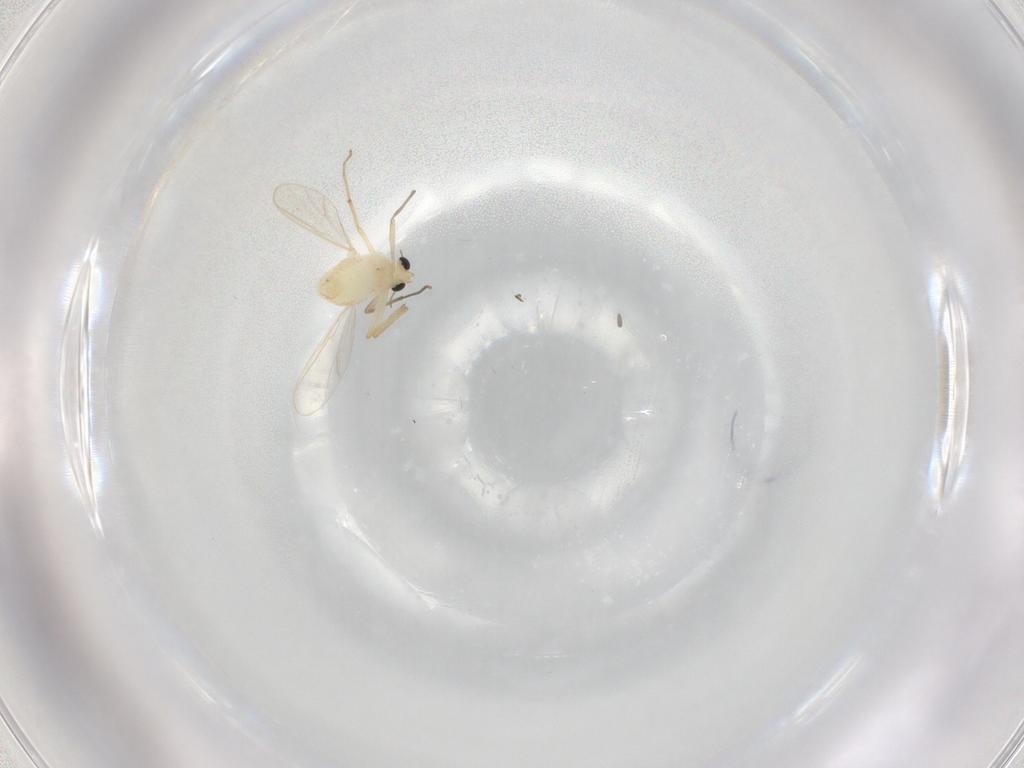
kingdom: Animalia
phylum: Arthropoda
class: Insecta
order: Diptera
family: Chironomidae
